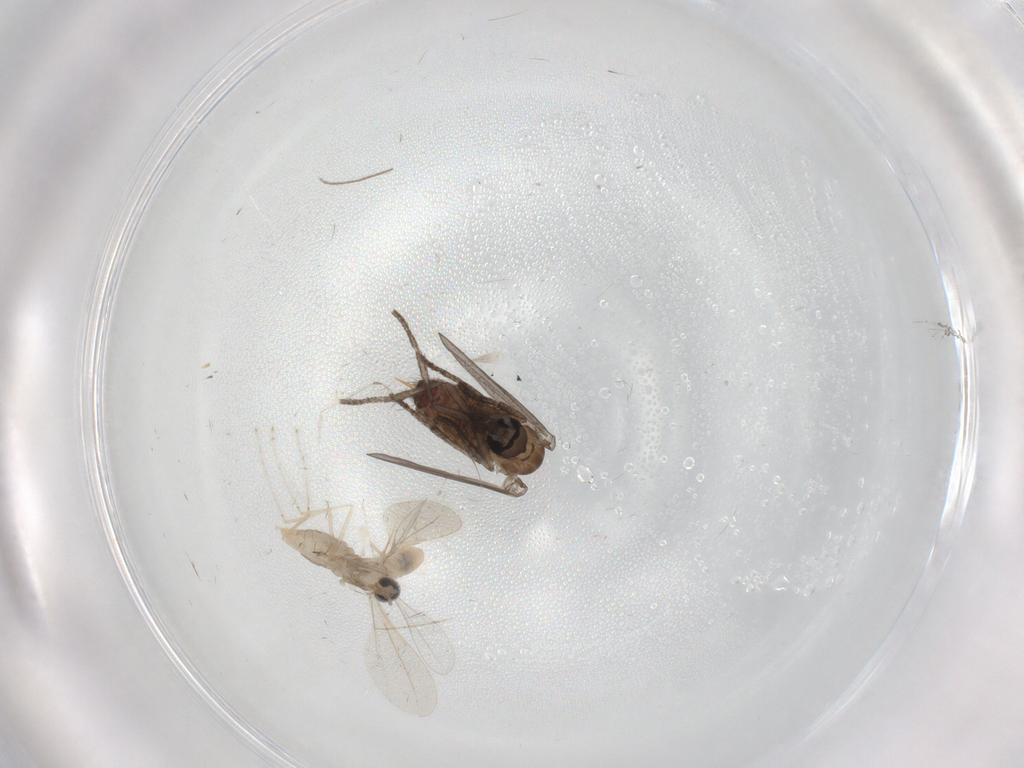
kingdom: Animalia
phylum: Arthropoda
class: Insecta
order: Diptera
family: Psychodidae
